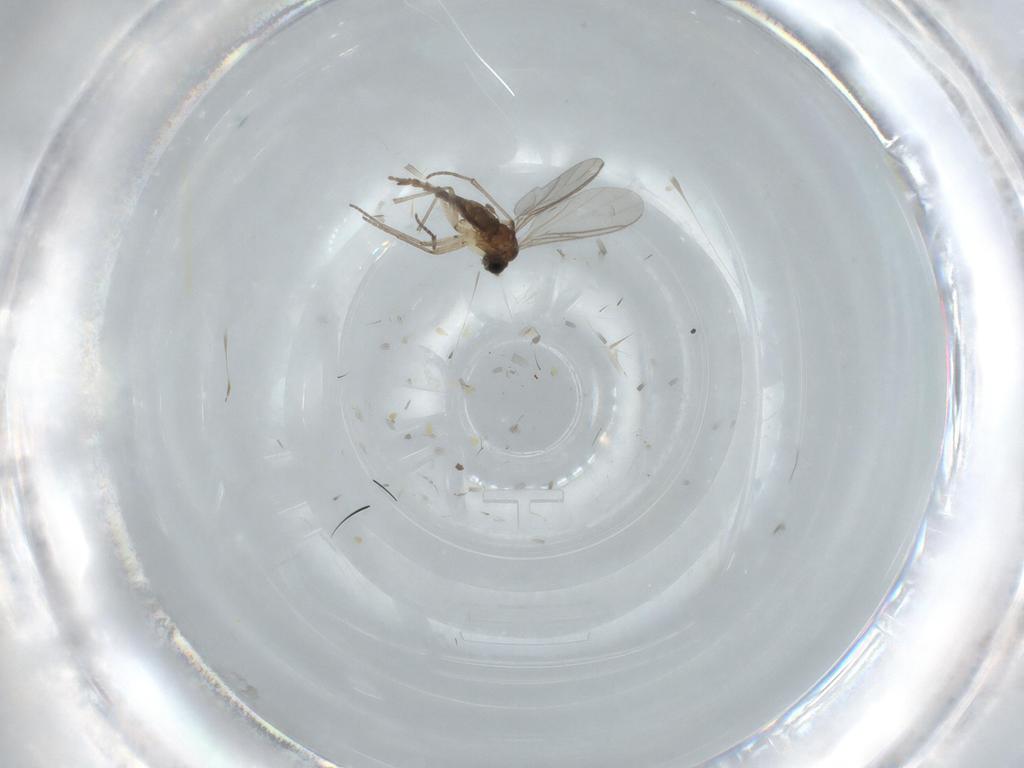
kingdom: Animalia
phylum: Arthropoda
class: Insecta
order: Diptera
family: Sciaridae
